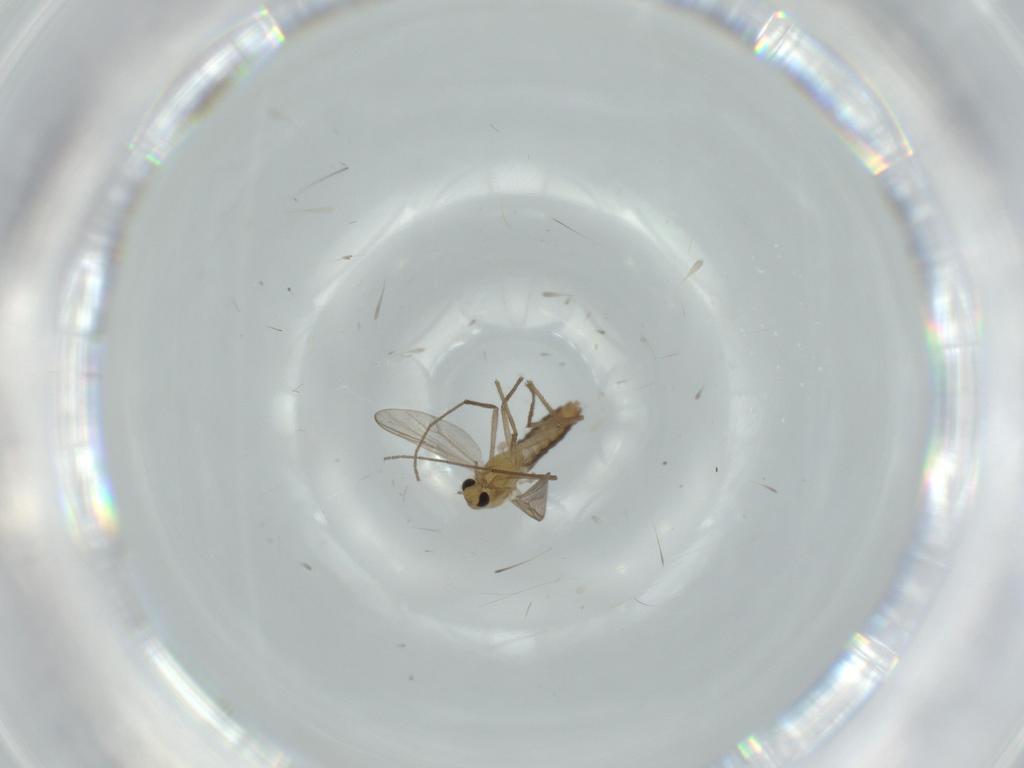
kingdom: Animalia
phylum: Arthropoda
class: Insecta
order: Diptera
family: Chironomidae
